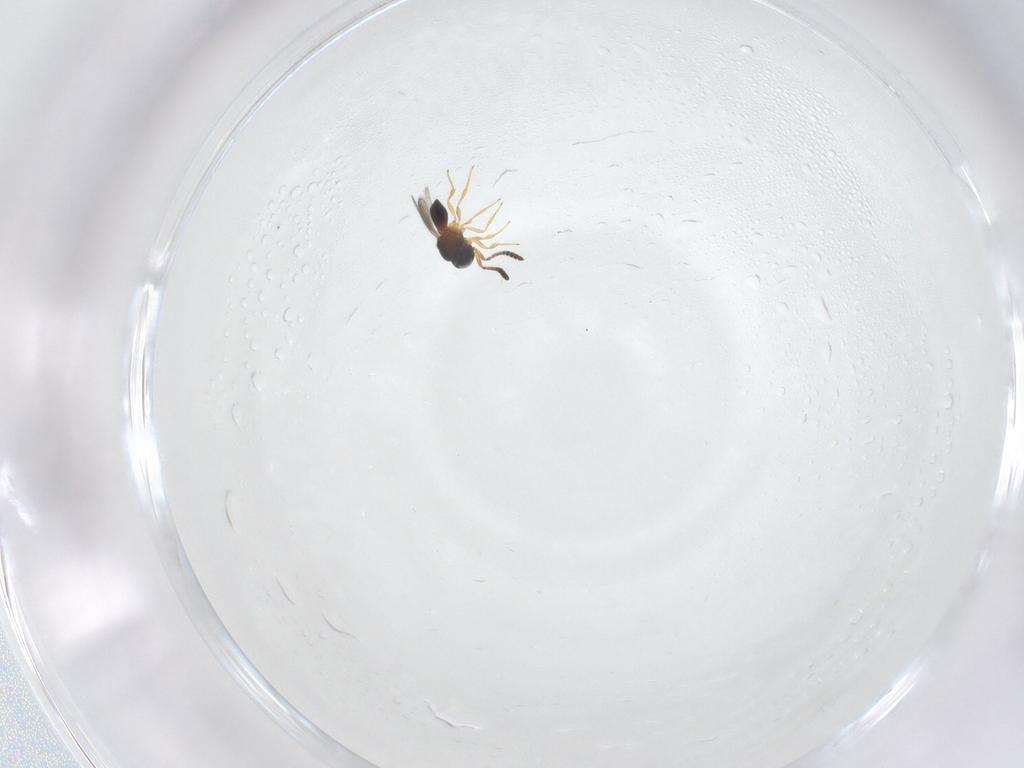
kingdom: Animalia
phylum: Arthropoda
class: Insecta
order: Hymenoptera
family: Scelionidae
